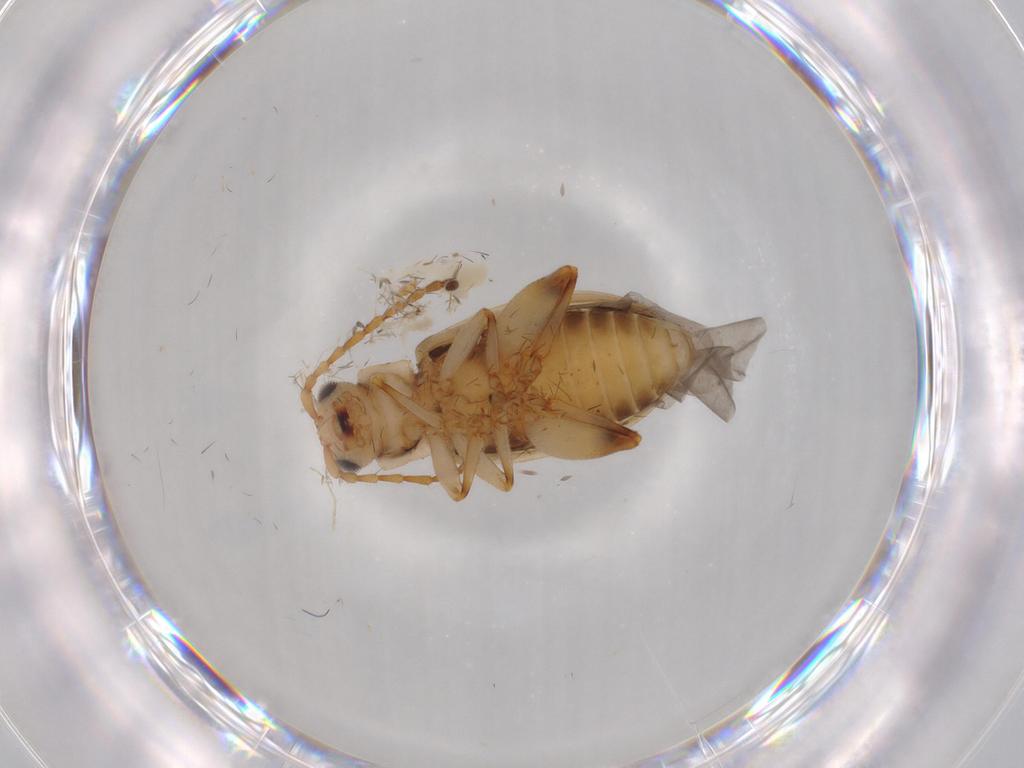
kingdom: Animalia
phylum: Arthropoda
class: Insecta
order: Coleoptera
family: Chrysomelidae
